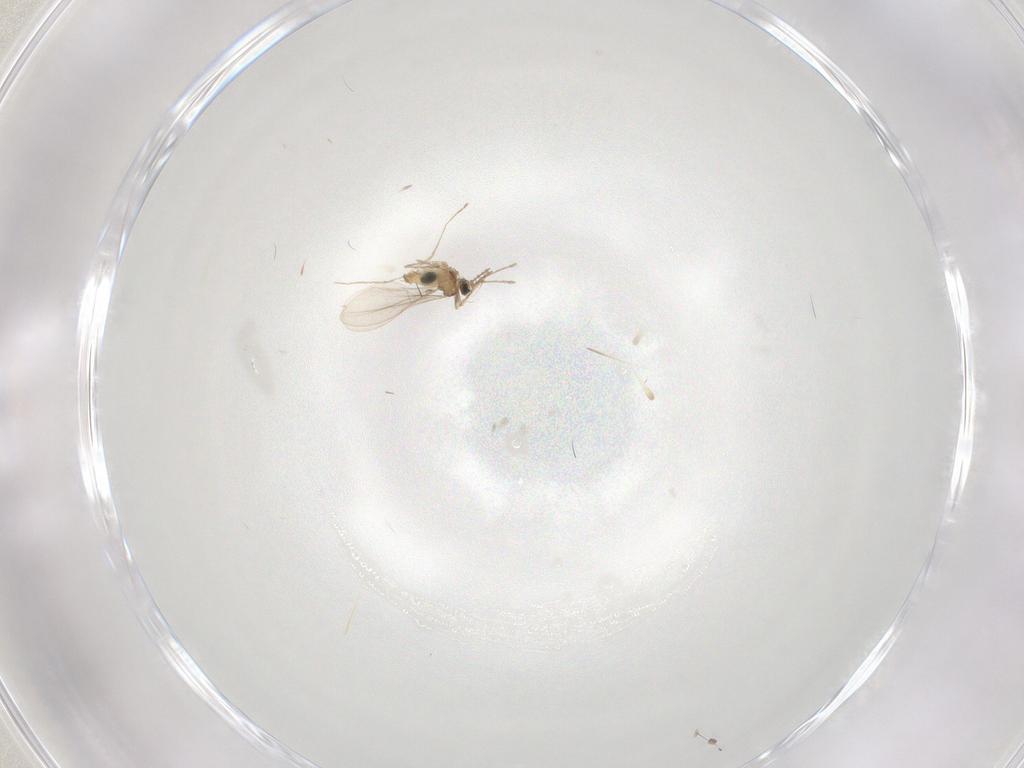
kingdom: Animalia
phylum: Arthropoda
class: Insecta
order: Diptera
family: Cecidomyiidae
